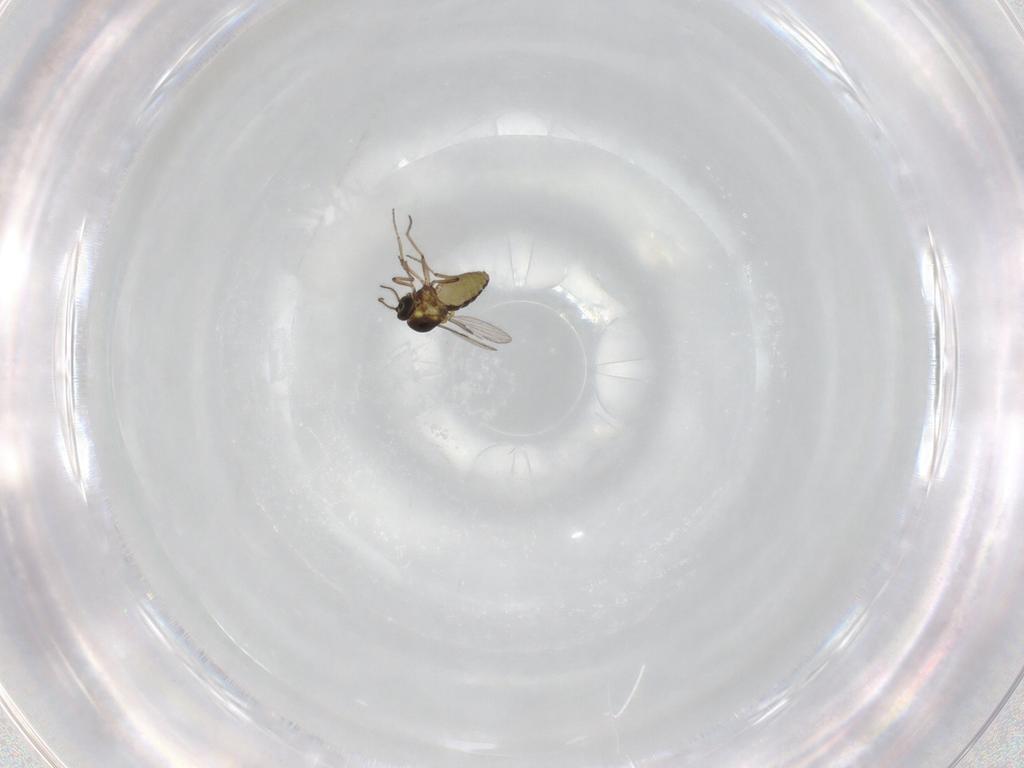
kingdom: Animalia
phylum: Arthropoda
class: Insecta
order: Diptera
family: Ceratopogonidae
